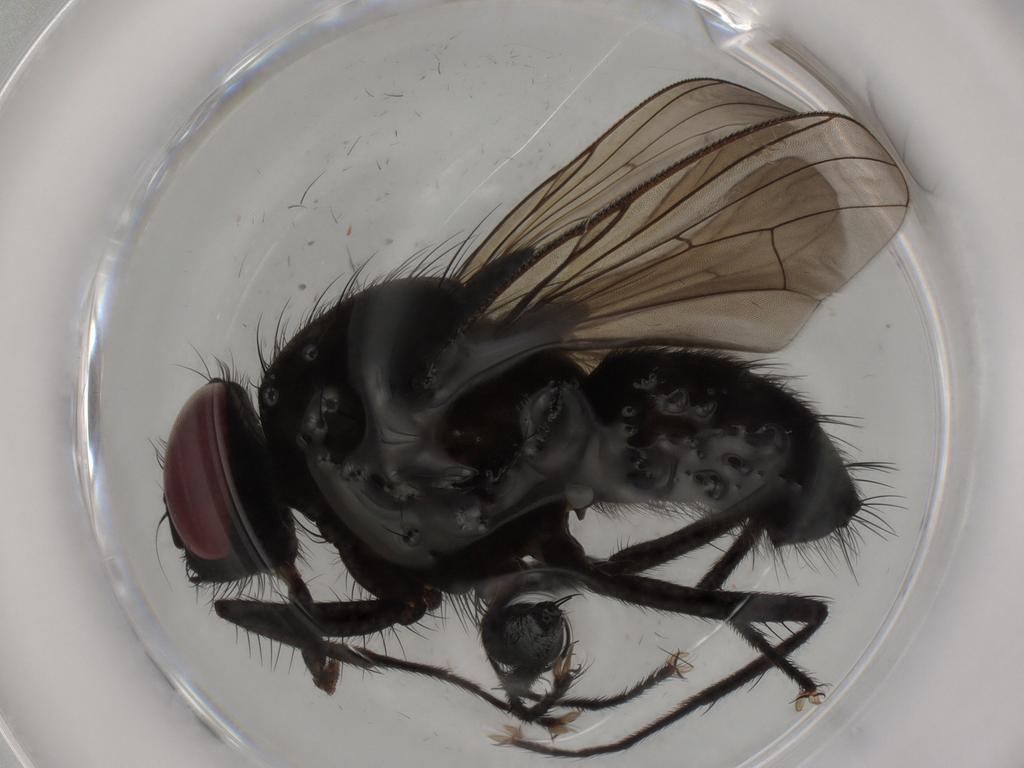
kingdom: Animalia
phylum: Arthropoda
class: Insecta
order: Diptera
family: Muscidae
